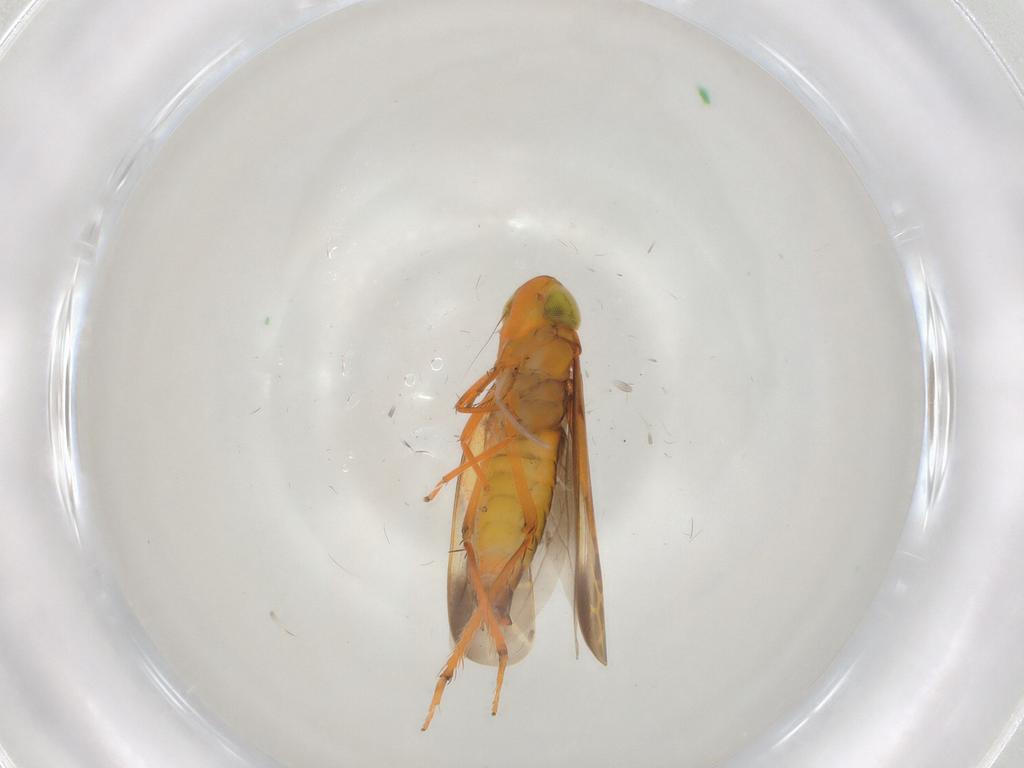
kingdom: Animalia
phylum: Arthropoda
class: Insecta
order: Hemiptera
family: Cicadellidae
